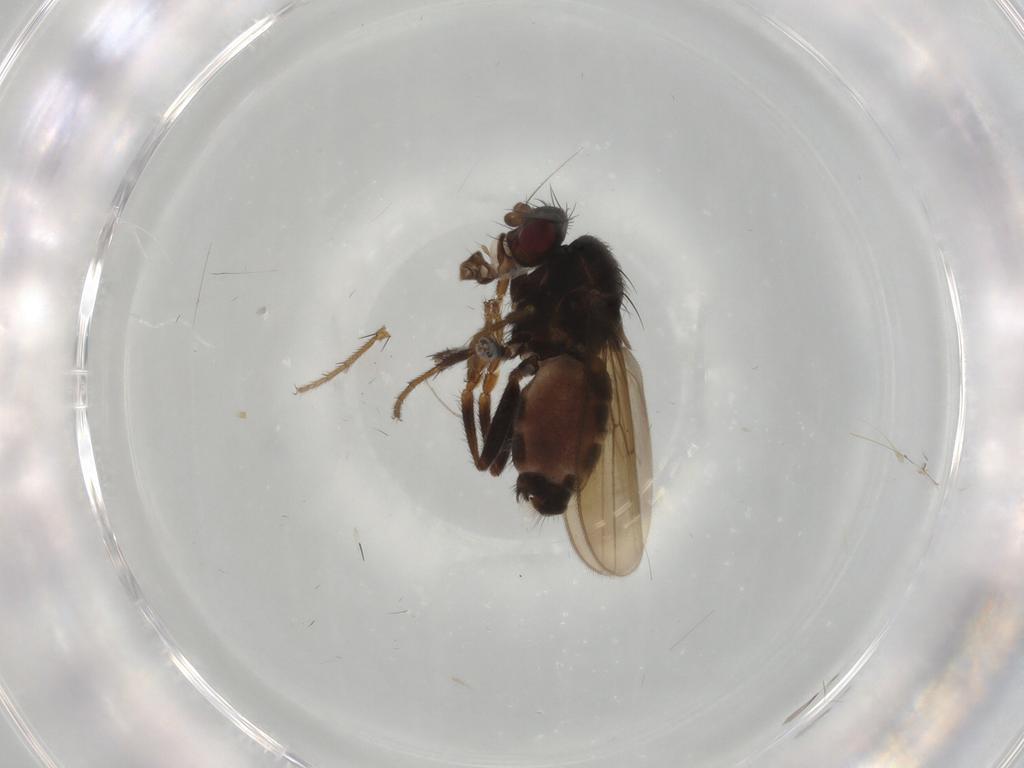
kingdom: Animalia
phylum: Arthropoda
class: Insecta
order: Diptera
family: Sphaeroceridae
